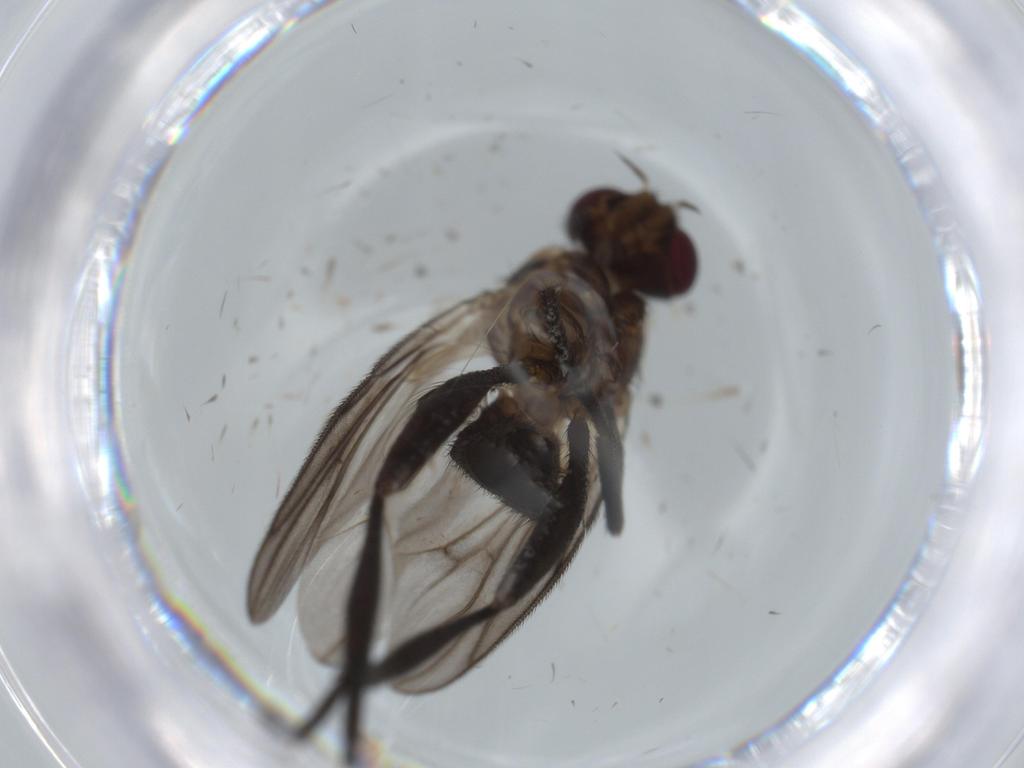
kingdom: Animalia
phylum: Arthropoda
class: Insecta
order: Diptera
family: Calliphoridae
